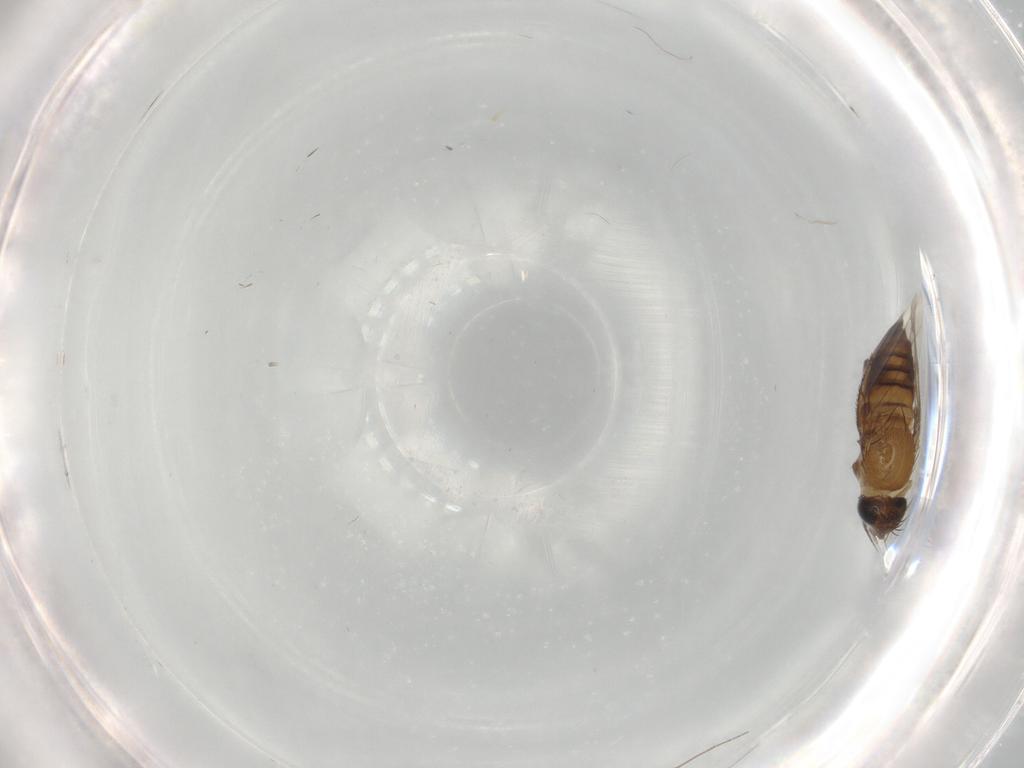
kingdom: Animalia
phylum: Arthropoda
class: Insecta
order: Diptera
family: Phoridae
